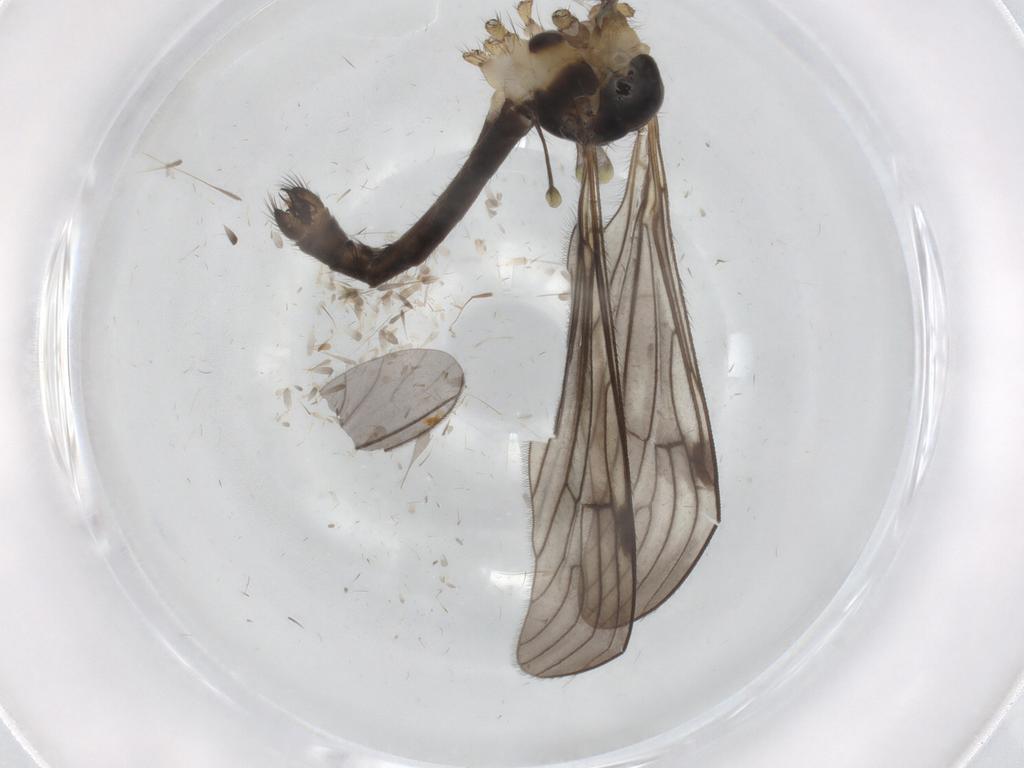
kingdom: Animalia
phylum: Arthropoda
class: Insecta
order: Diptera
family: Limoniidae
